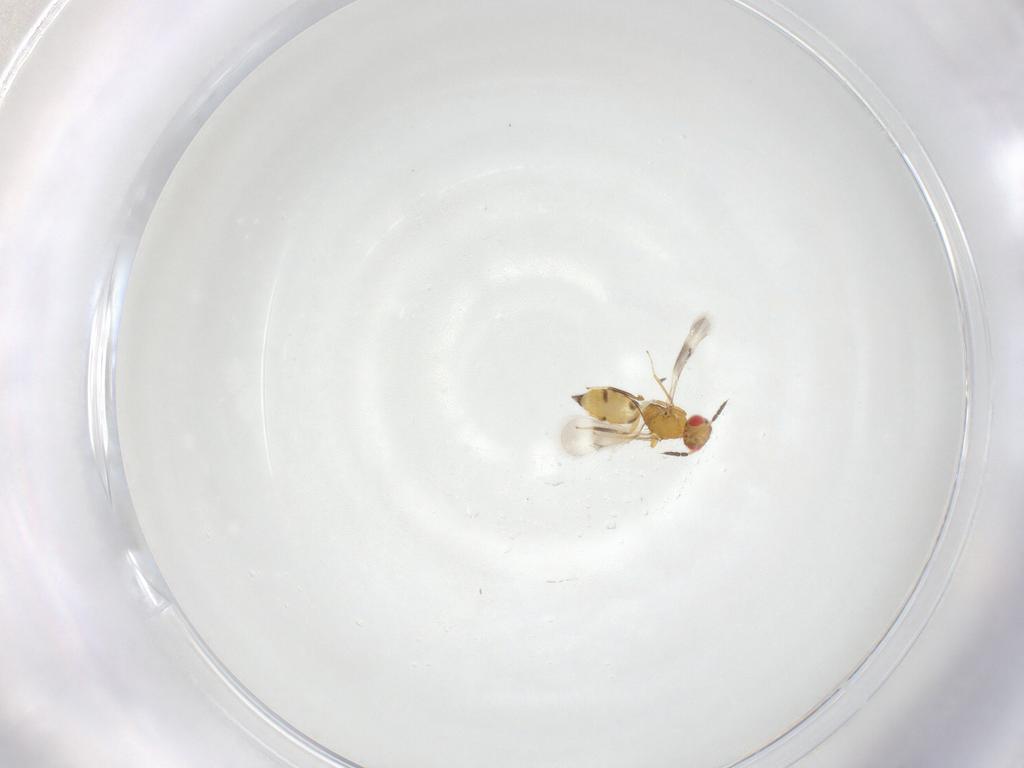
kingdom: Animalia
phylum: Arthropoda
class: Insecta
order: Hymenoptera
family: Eulophidae
